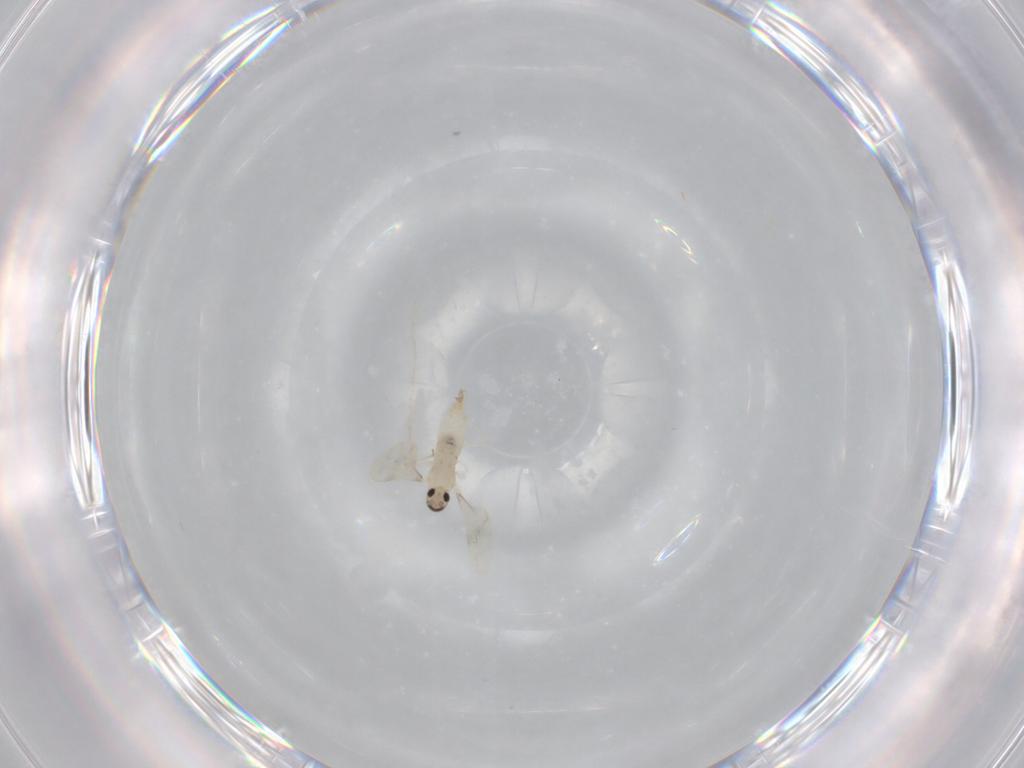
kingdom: Animalia
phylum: Arthropoda
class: Insecta
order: Diptera
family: Cecidomyiidae
